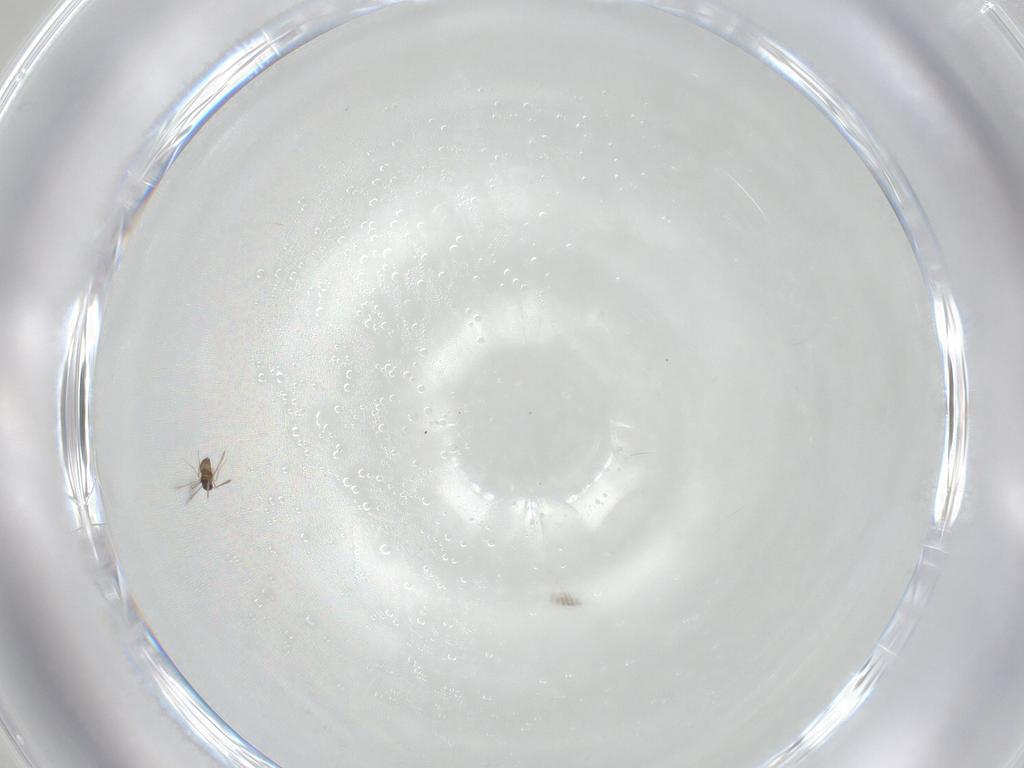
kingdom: Animalia
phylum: Arthropoda
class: Insecta
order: Hymenoptera
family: Mymaridae
